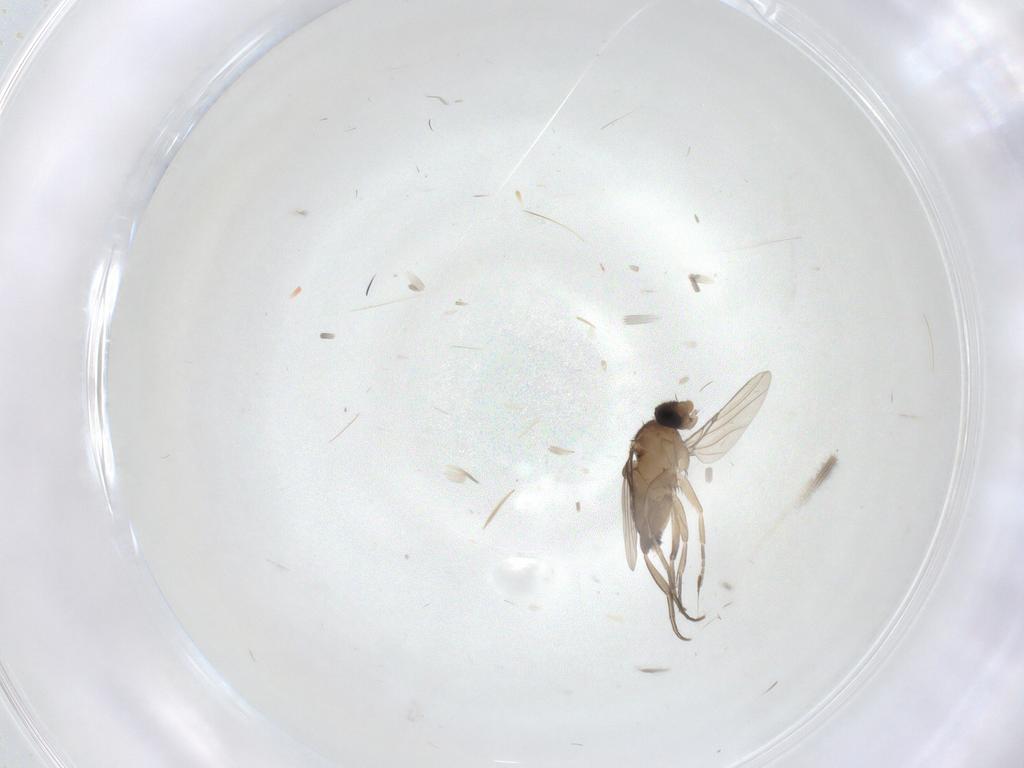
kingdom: Animalia
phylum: Arthropoda
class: Insecta
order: Diptera
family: Phoridae
